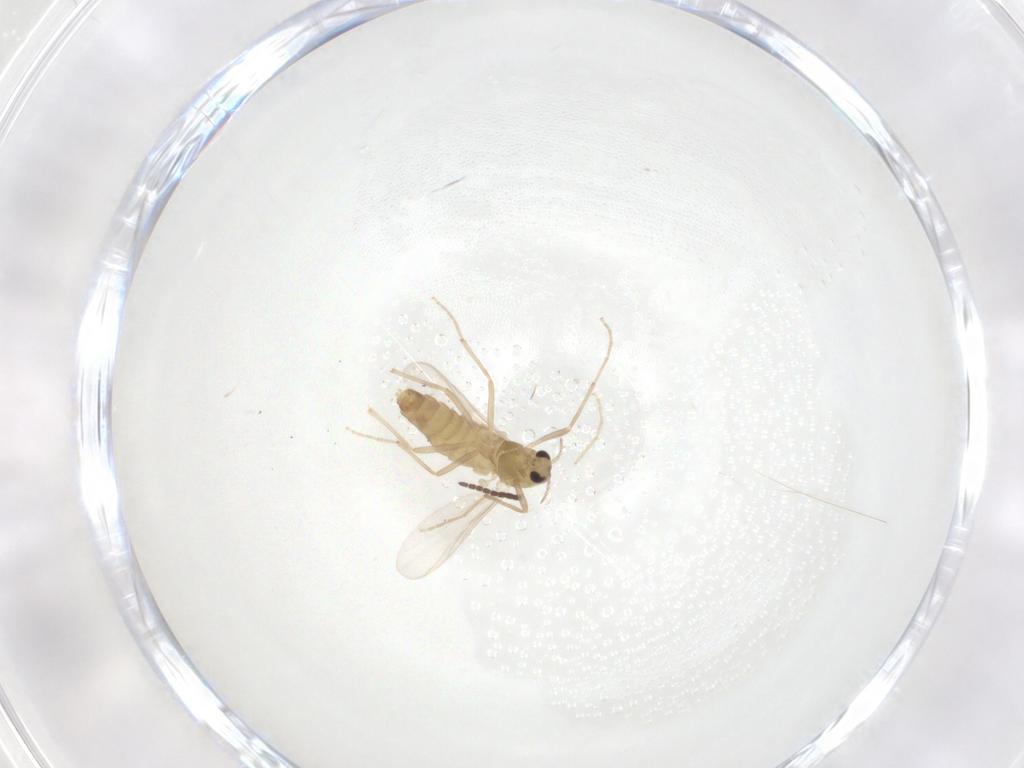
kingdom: Animalia
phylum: Arthropoda
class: Insecta
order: Diptera
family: Chironomidae
